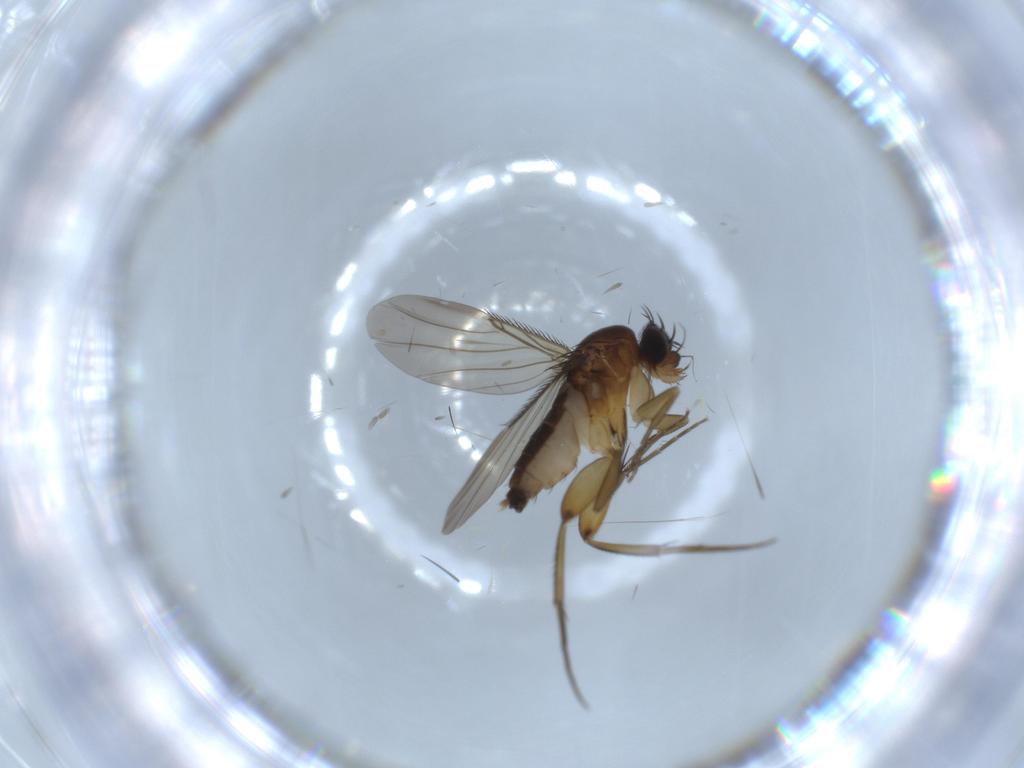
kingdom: Animalia
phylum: Arthropoda
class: Insecta
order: Diptera
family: Phoridae
